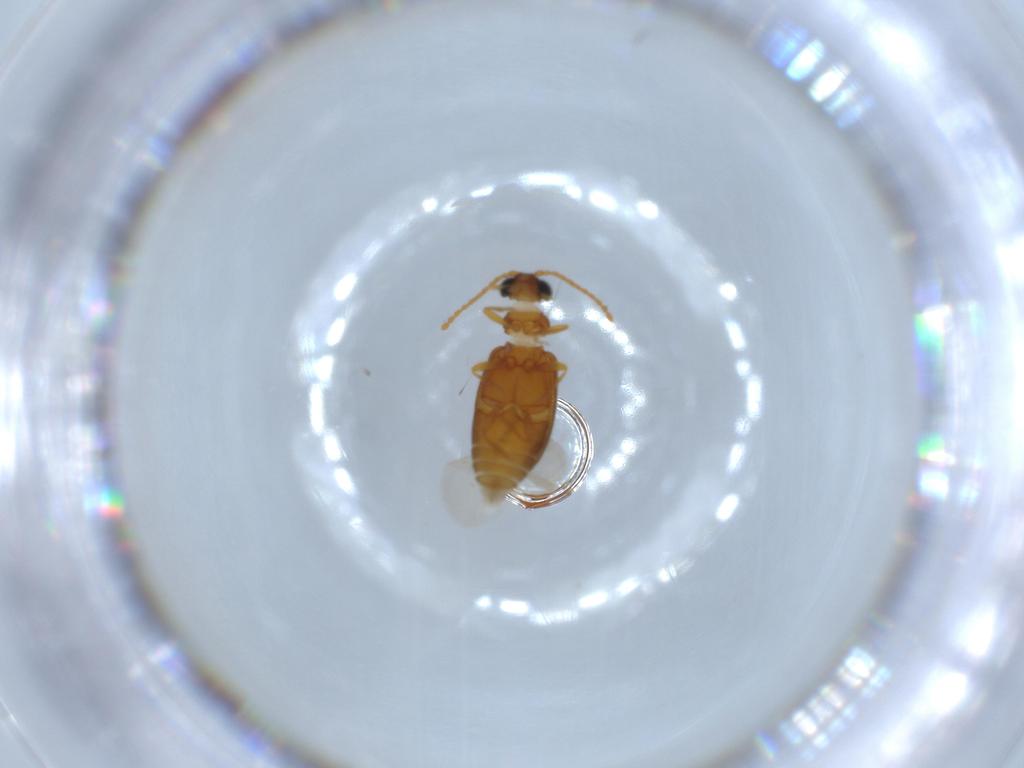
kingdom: Animalia
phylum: Arthropoda
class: Insecta
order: Coleoptera
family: Aderidae
